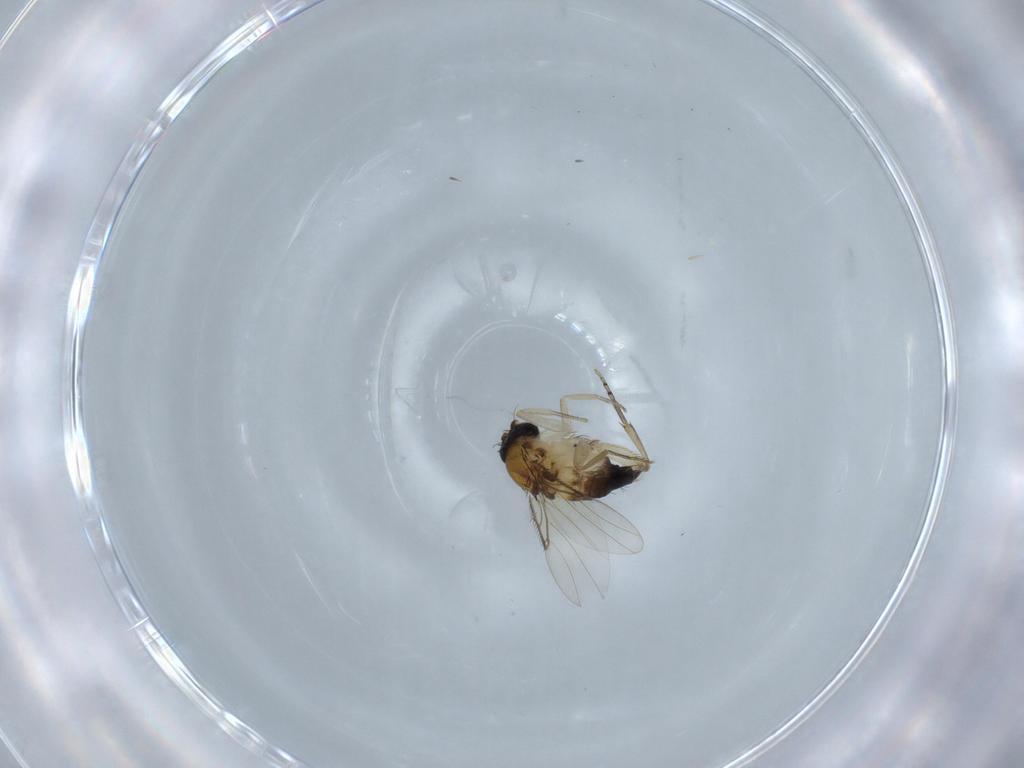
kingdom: Animalia
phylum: Arthropoda
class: Insecta
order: Diptera
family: Phoridae
